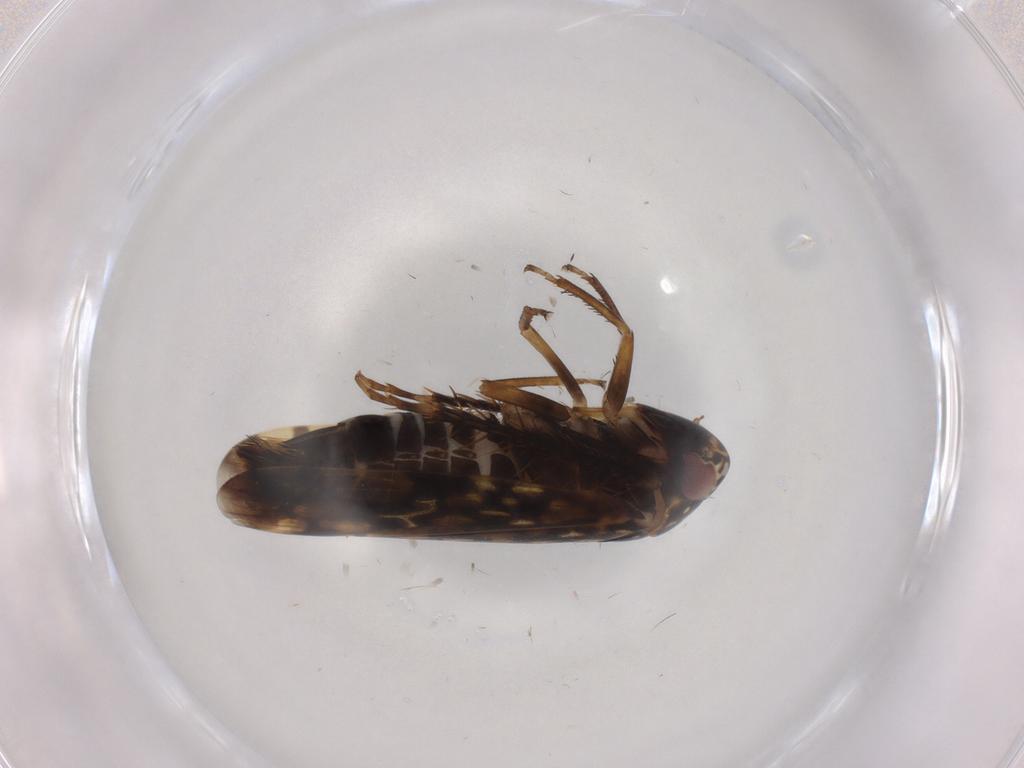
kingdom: Animalia
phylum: Arthropoda
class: Insecta
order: Hemiptera
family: Cicadellidae
